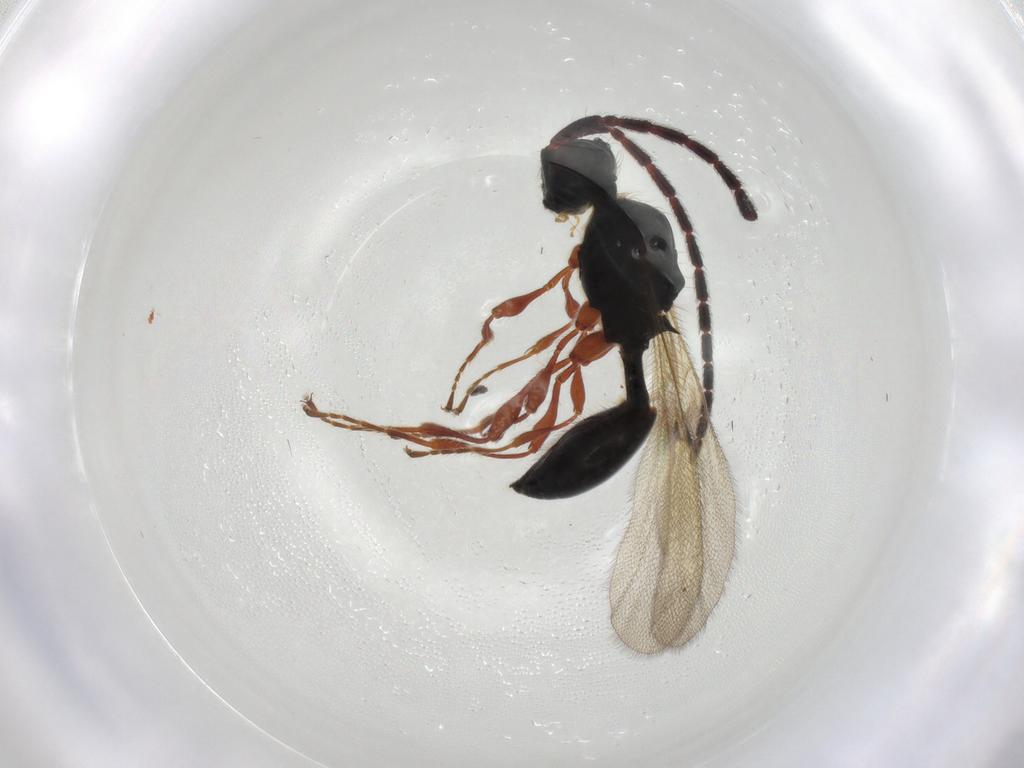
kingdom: Animalia
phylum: Arthropoda
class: Insecta
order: Hymenoptera
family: Diapriidae
